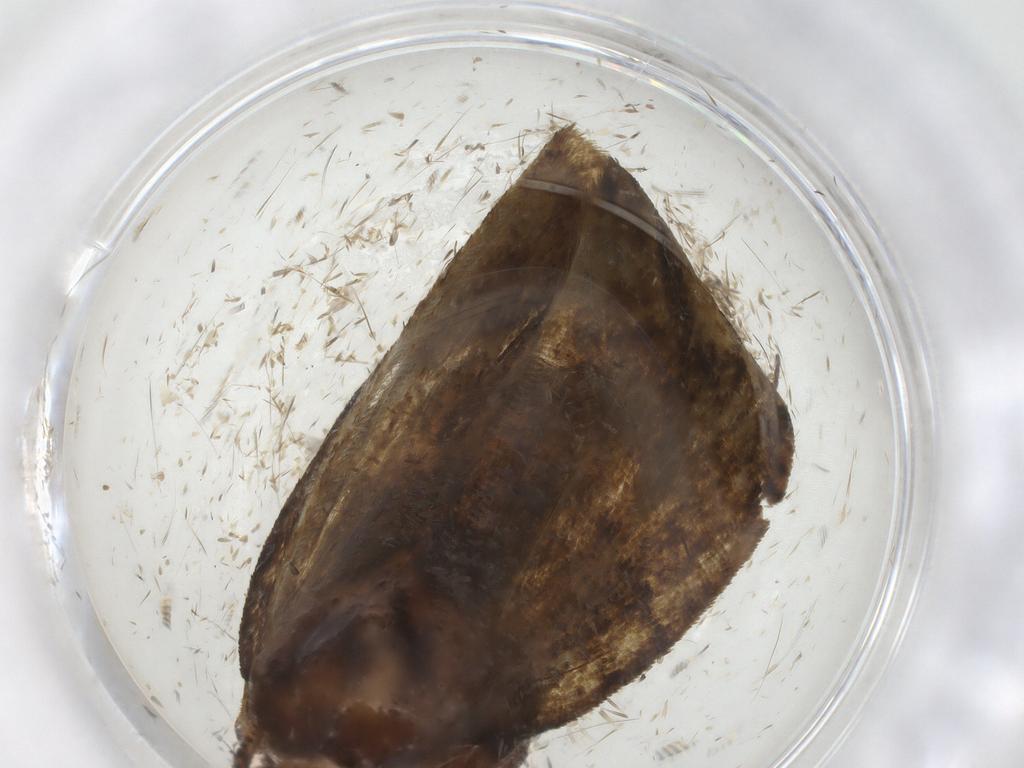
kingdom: Animalia
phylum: Arthropoda
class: Insecta
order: Lepidoptera
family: Geometridae
